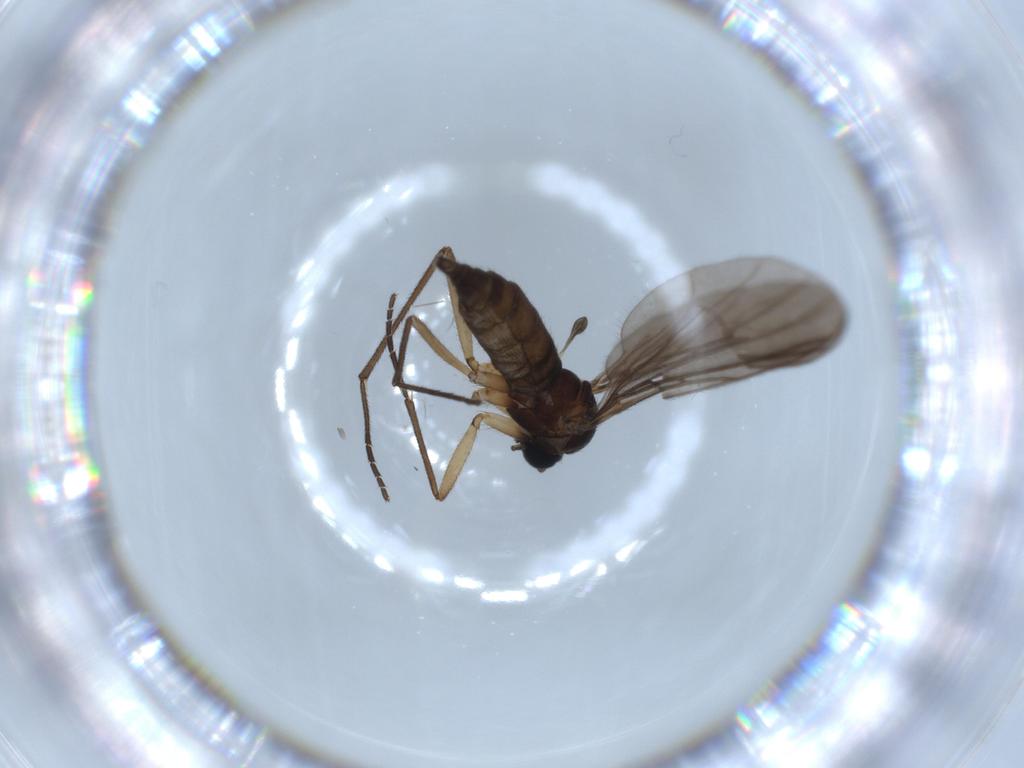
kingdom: Animalia
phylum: Arthropoda
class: Insecta
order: Diptera
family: Sciaridae
